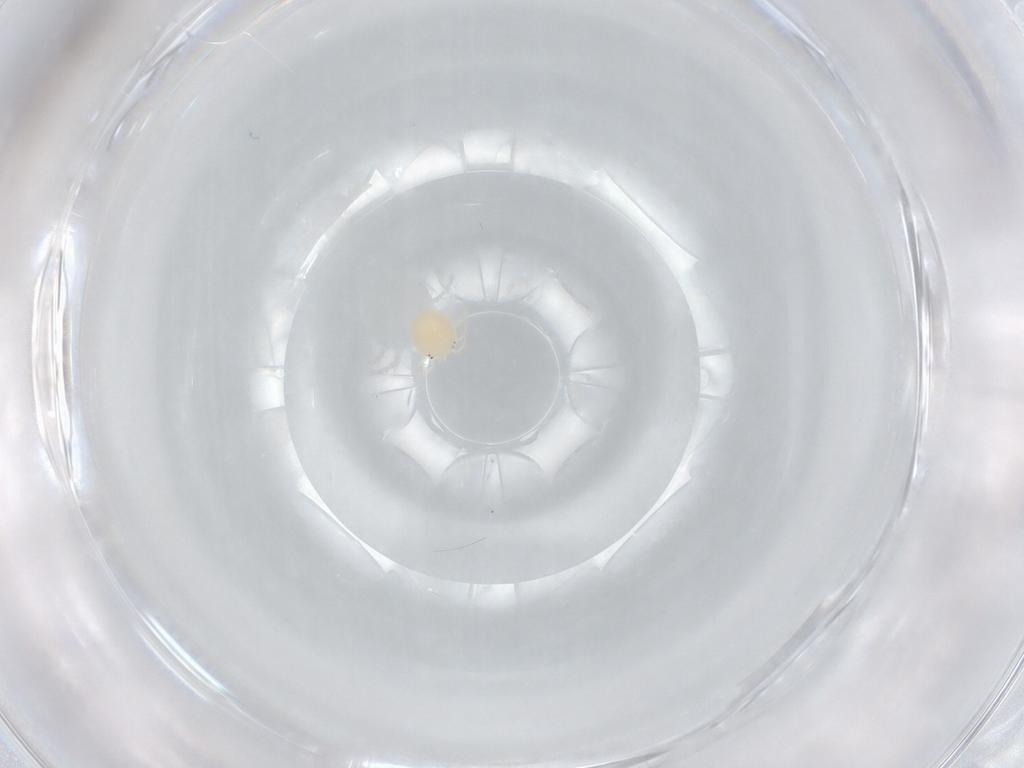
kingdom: Animalia
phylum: Arthropoda
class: Arachnida
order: Trombidiformes
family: Hydryphantidae
